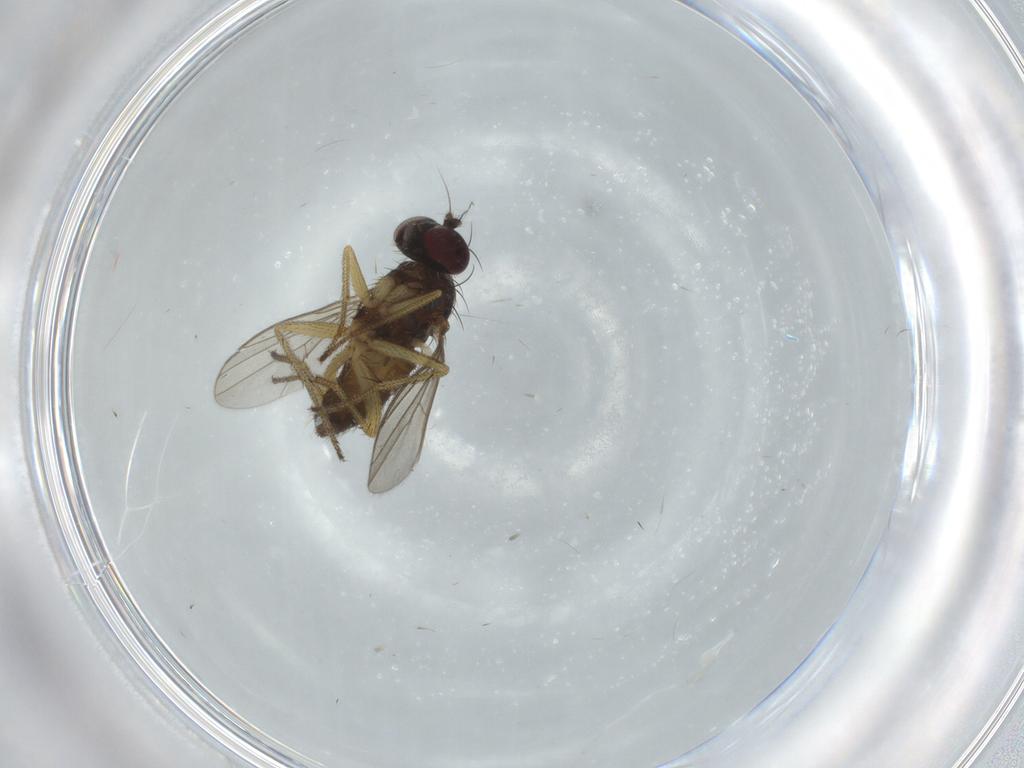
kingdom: Animalia
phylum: Arthropoda
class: Insecta
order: Diptera
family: Dolichopodidae
